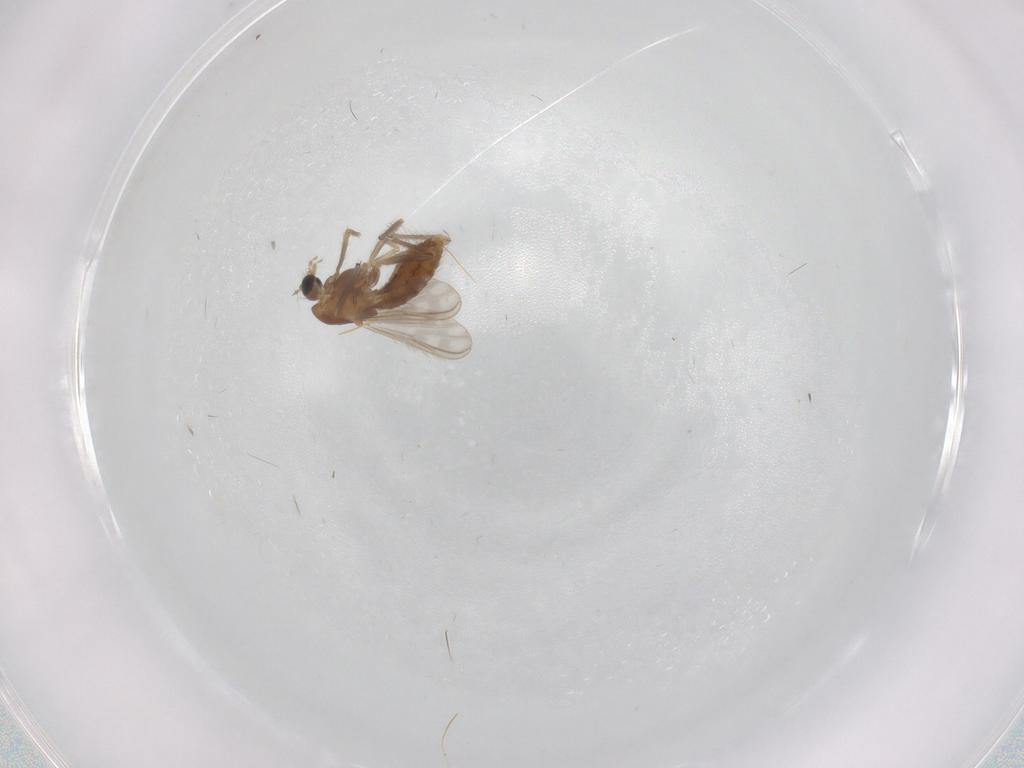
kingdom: Animalia
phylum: Arthropoda
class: Insecta
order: Diptera
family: Chironomidae
